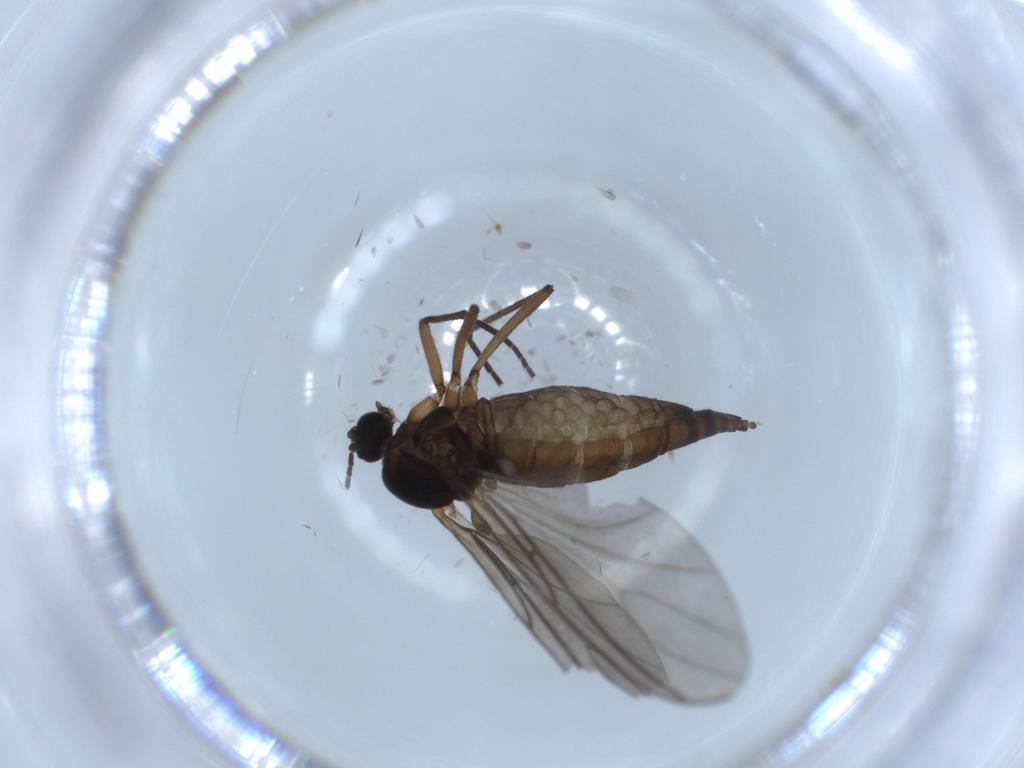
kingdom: Animalia
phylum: Arthropoda
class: Insecta
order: Diptera
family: Sciaridae
